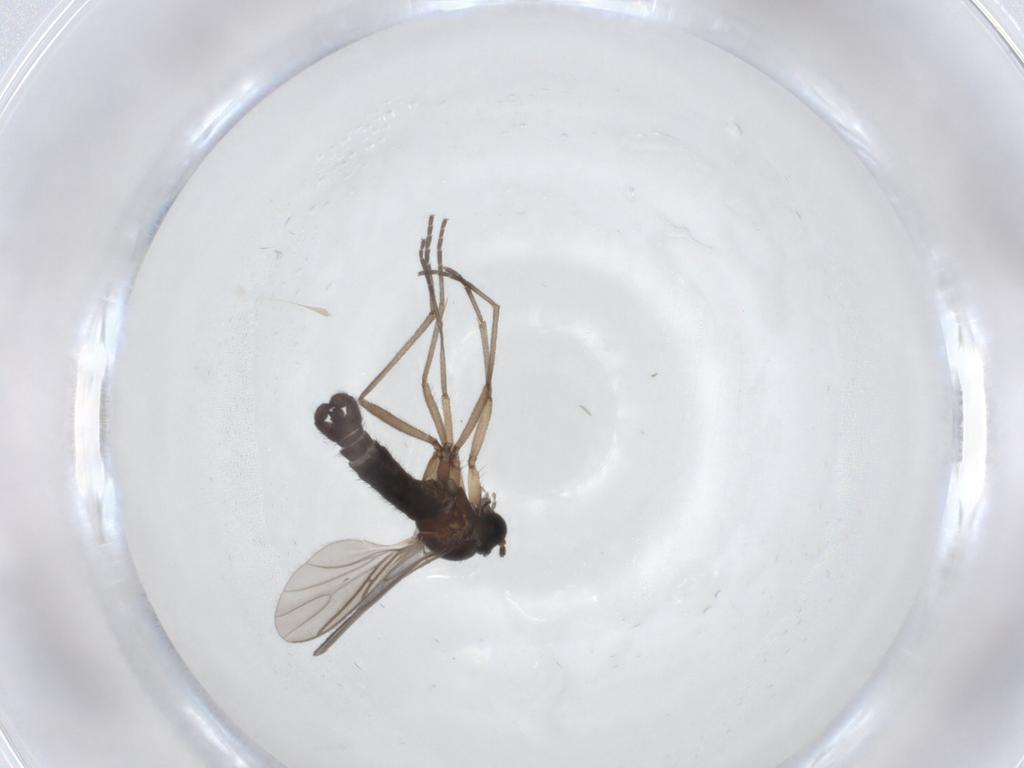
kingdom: Animalia
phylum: Arthropoda
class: Insecta
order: Diptera
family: Sciaridae
